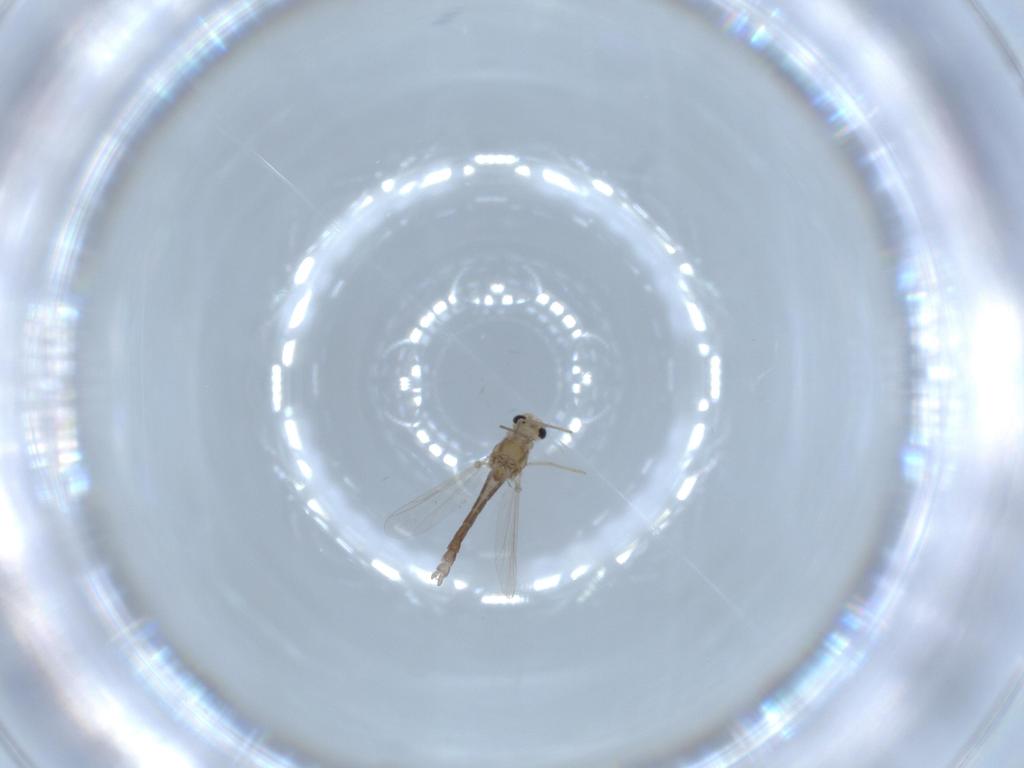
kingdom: Animalia
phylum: Arthropoda
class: Insecta
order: Diptera
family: Chironomidae
